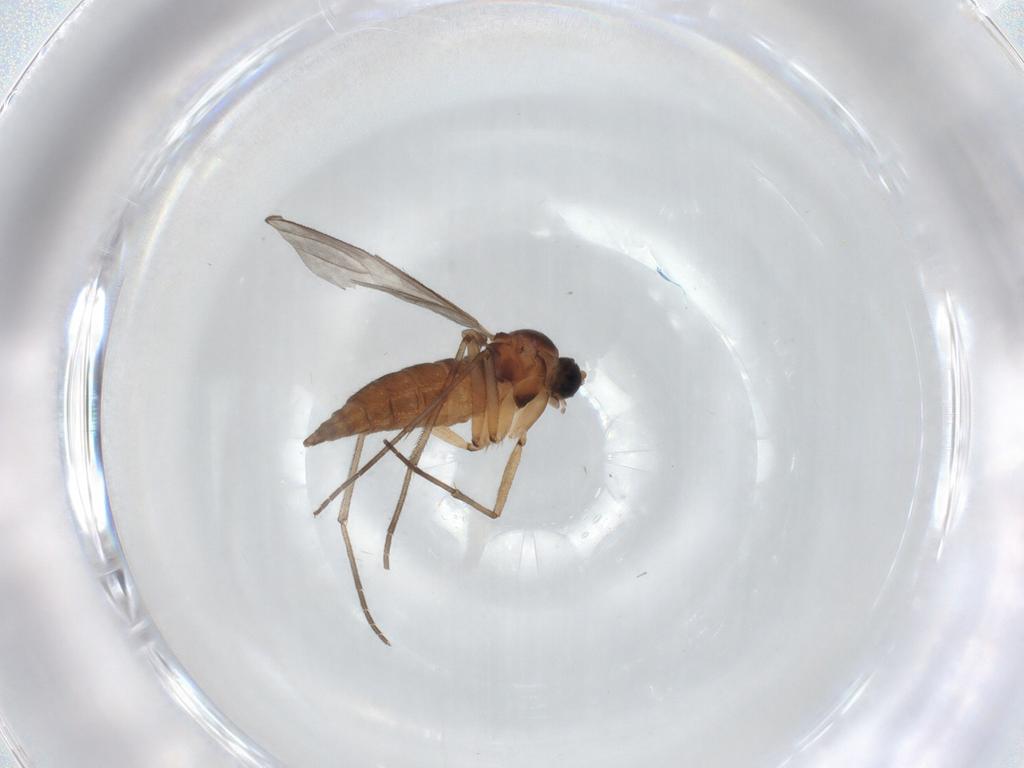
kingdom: Animalia
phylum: Arthropoda
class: Insecta
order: Diptera
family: Sciaridae
